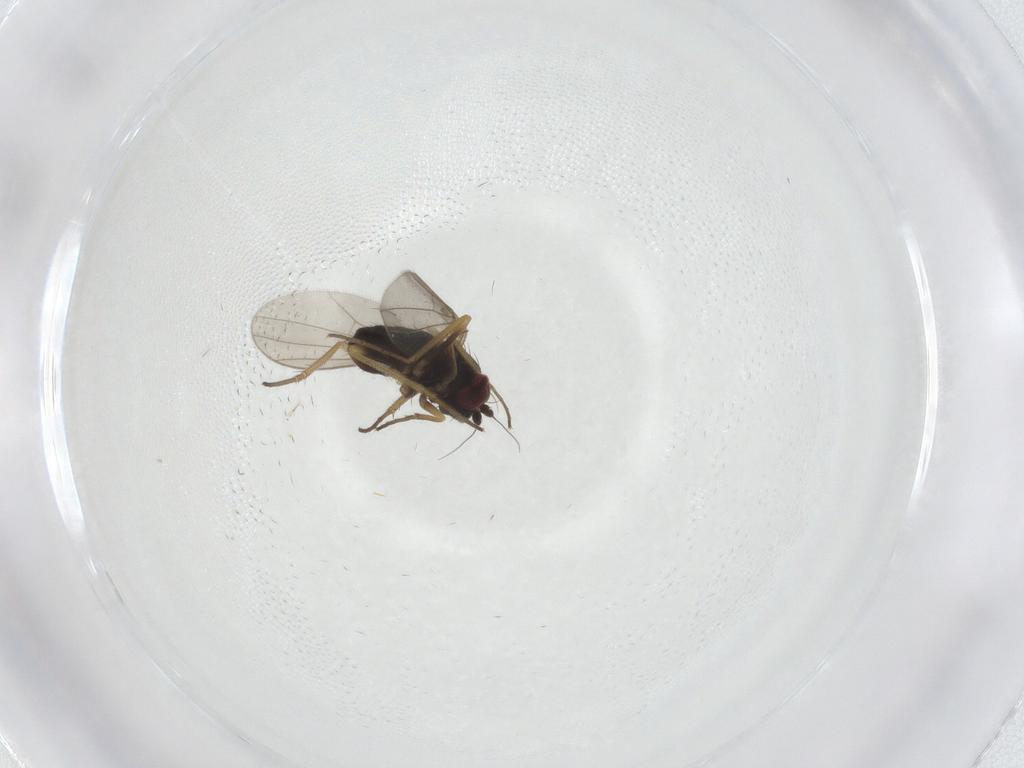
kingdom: Animalia
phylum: Arthropoda
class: Insecta
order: Diptera
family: Dolichopodidae
